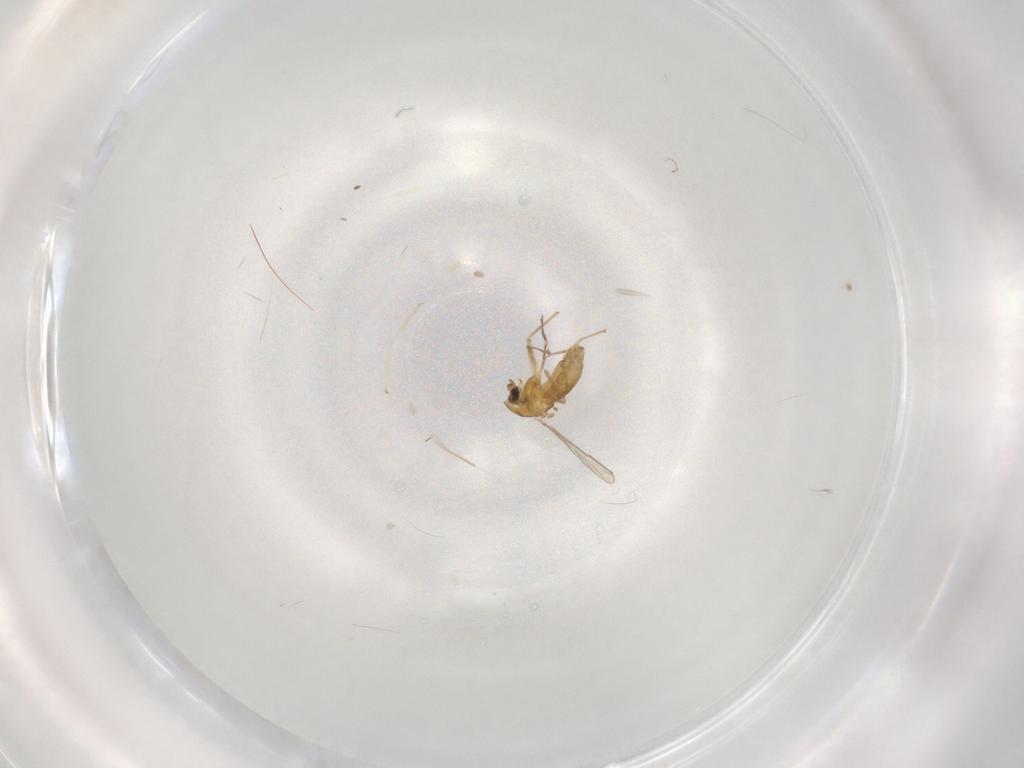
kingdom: Animalia
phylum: Arthropoda
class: Insecta
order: Diptera
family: Chironomidae
